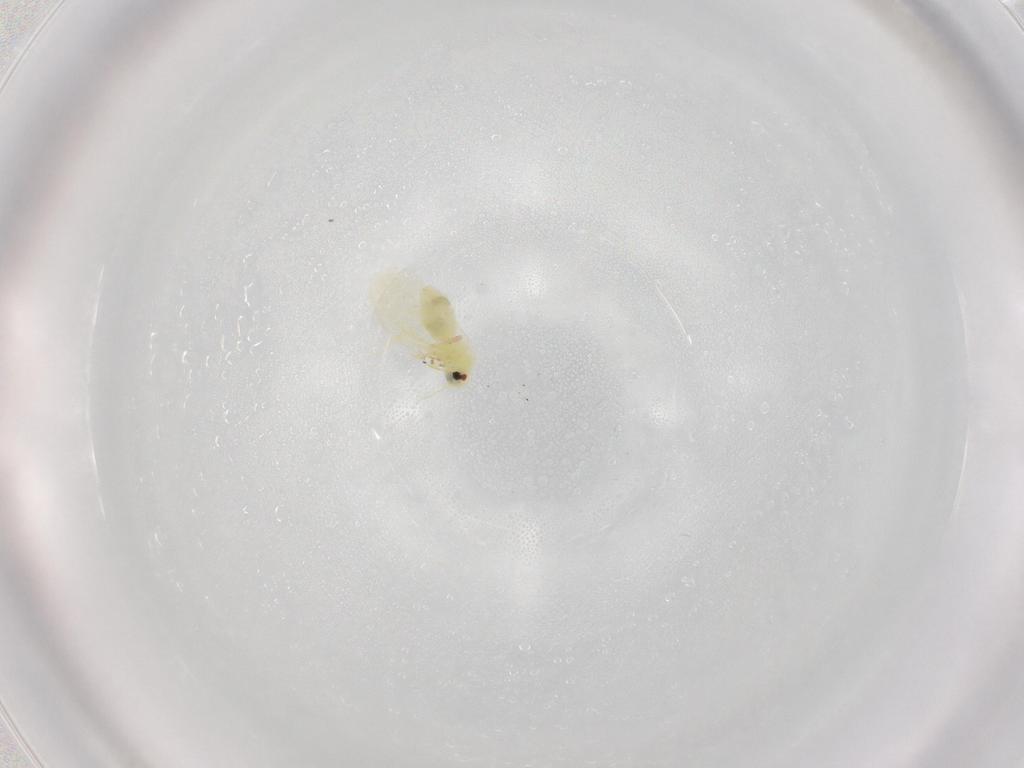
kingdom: Animalia
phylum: Arthropoda
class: Insecta
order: Hemiptera
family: Aleyrodidae
